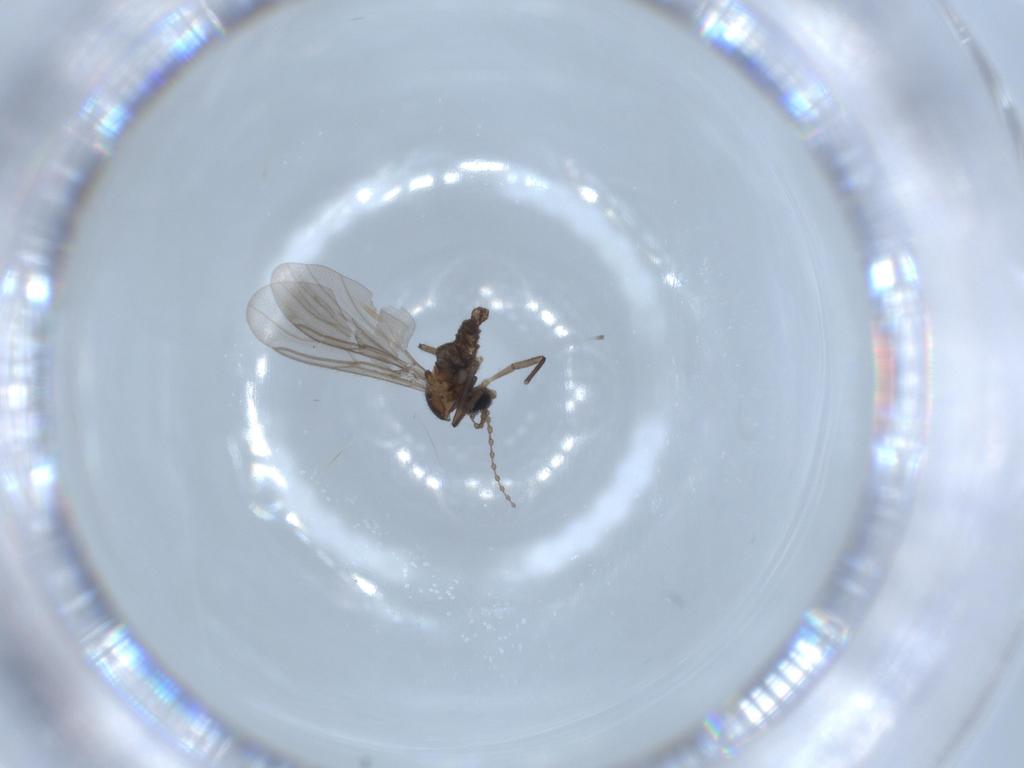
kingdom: Animalia
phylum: Arthropoda
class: Insecta
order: Diptera
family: Cecidomyiidae
